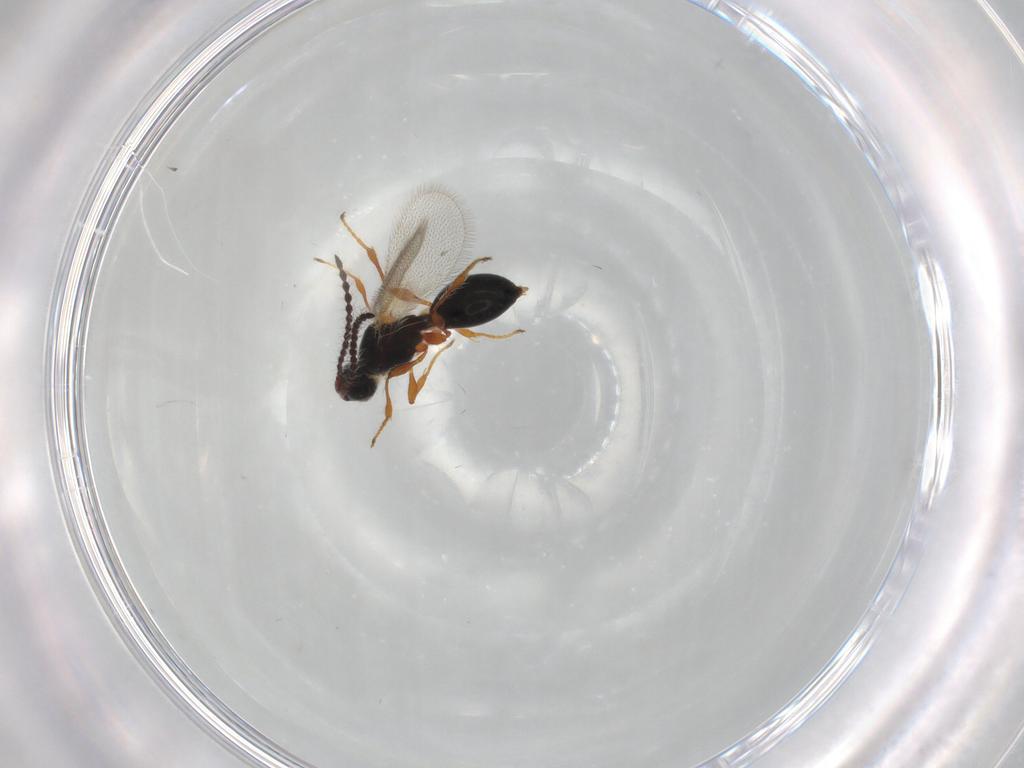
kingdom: Animalia
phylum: Arthropoda
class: Insecta
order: Hymenoptera
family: Diapriidae
